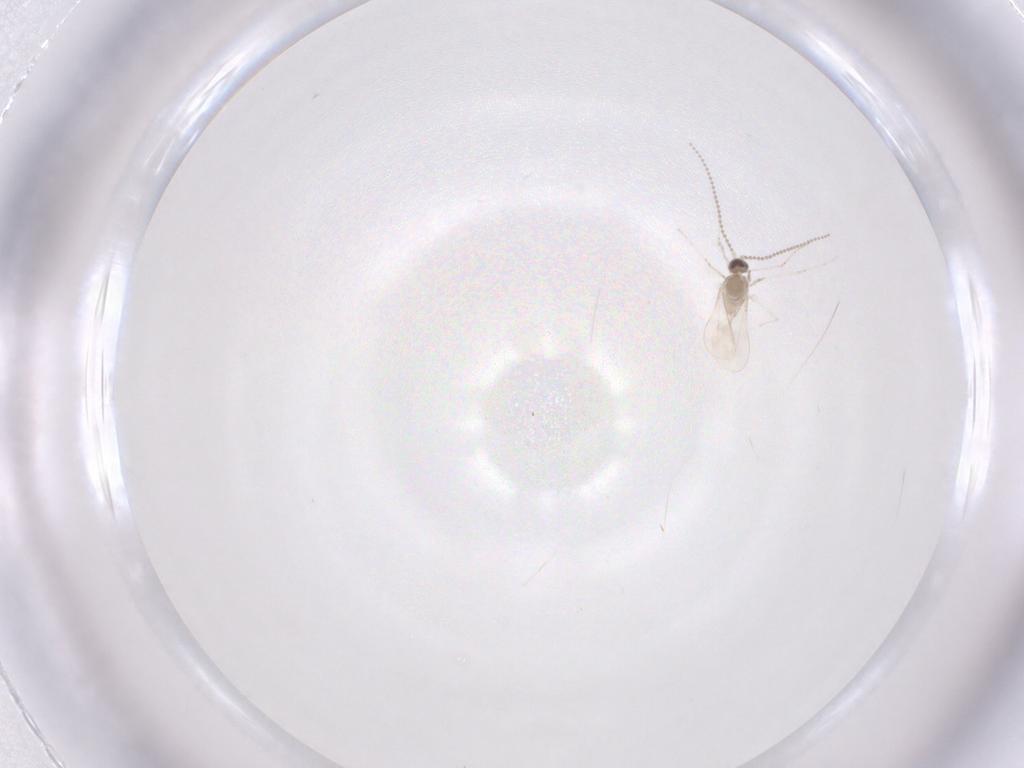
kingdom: Animalia
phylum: Arthropoda
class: Insecta
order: Diptera
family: Cecidomyiidae
